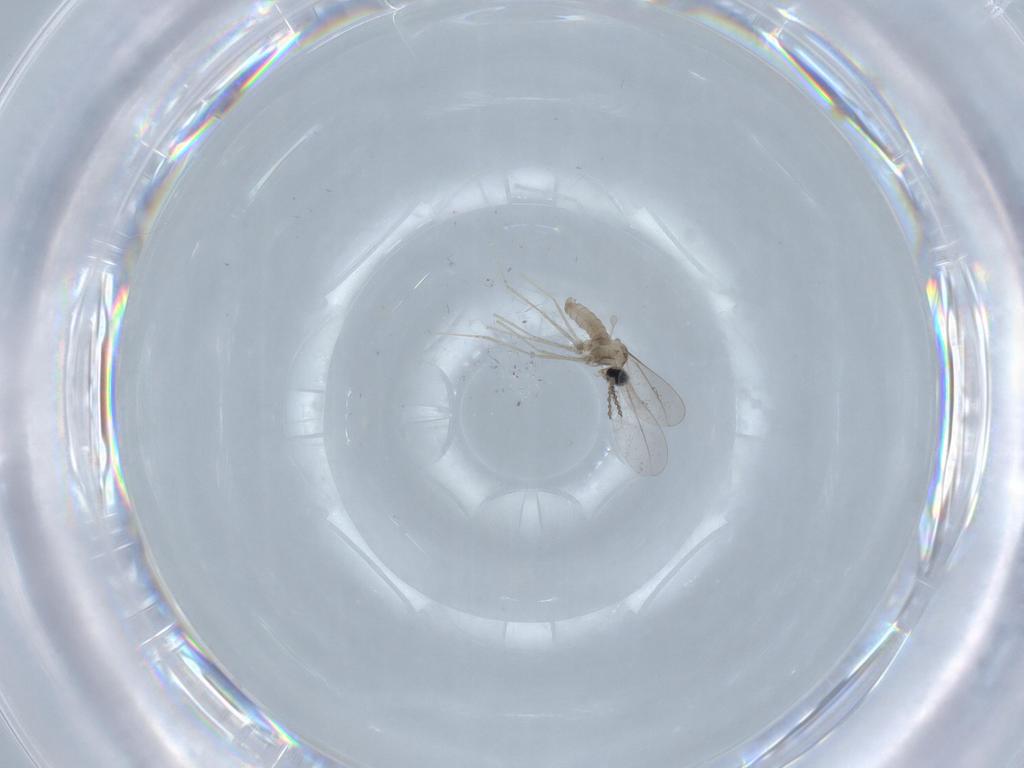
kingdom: Animalia
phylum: Arthropoda
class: Insecta
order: Diptera
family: Cecidomyiidae
